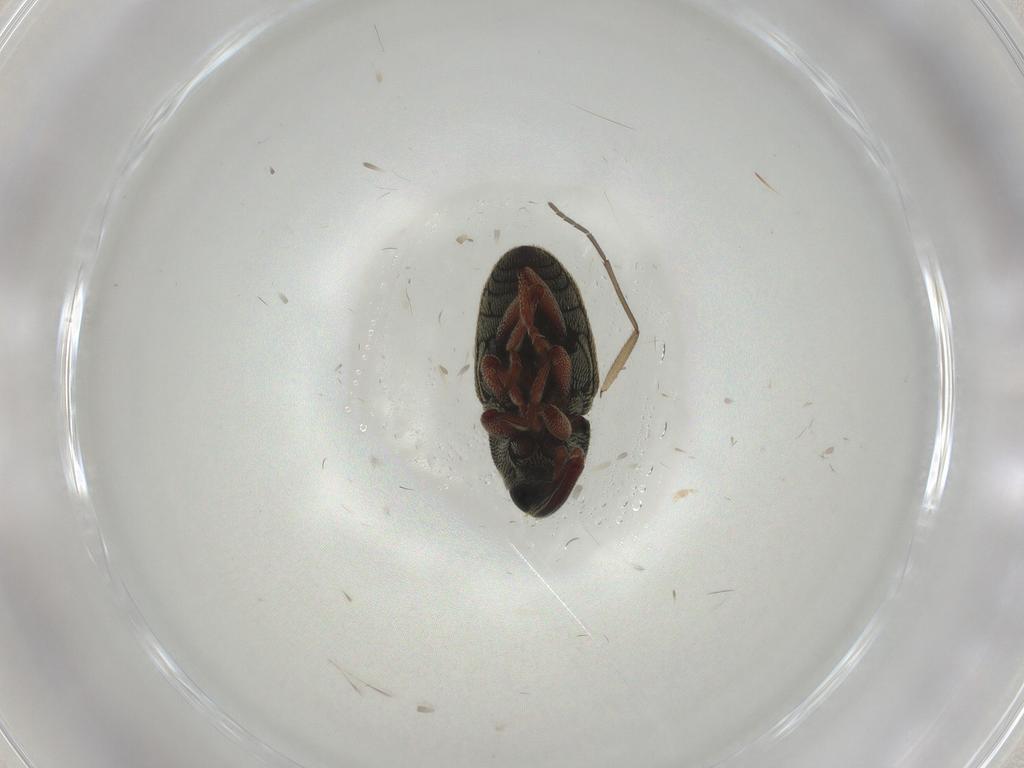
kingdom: Animalia
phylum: Arthropoda
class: Insecta
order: Coleoptera
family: Endomychidae
